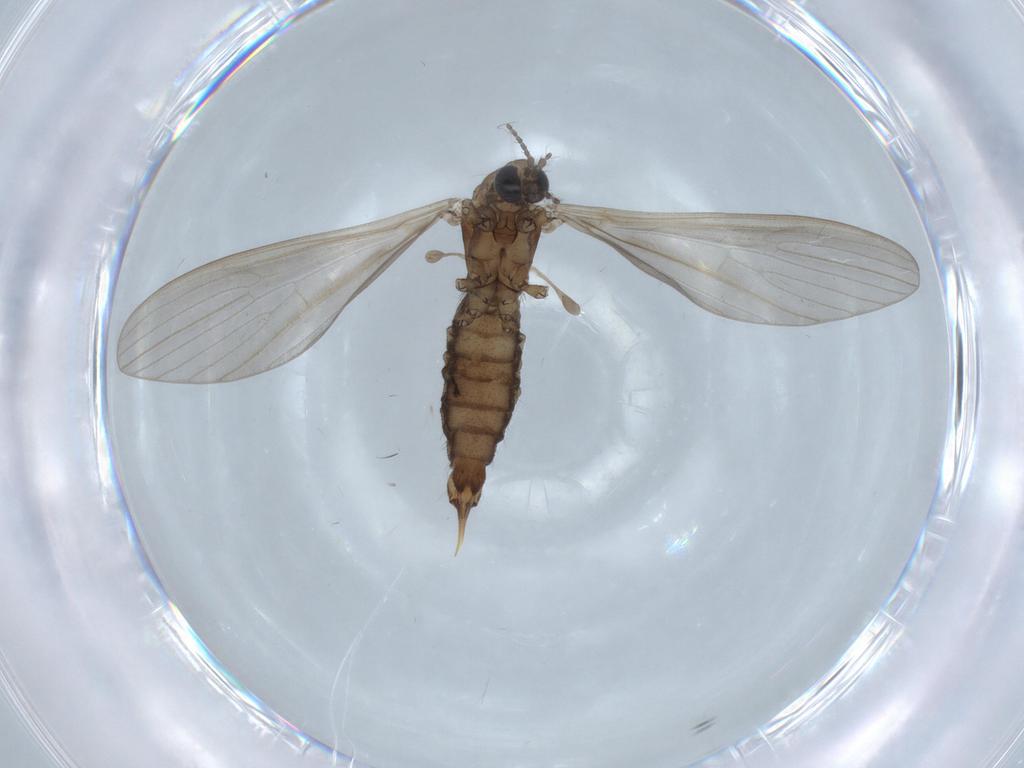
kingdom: Animalia
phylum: Arthropoda
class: Insecta
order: Diptera
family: Limoniidae
